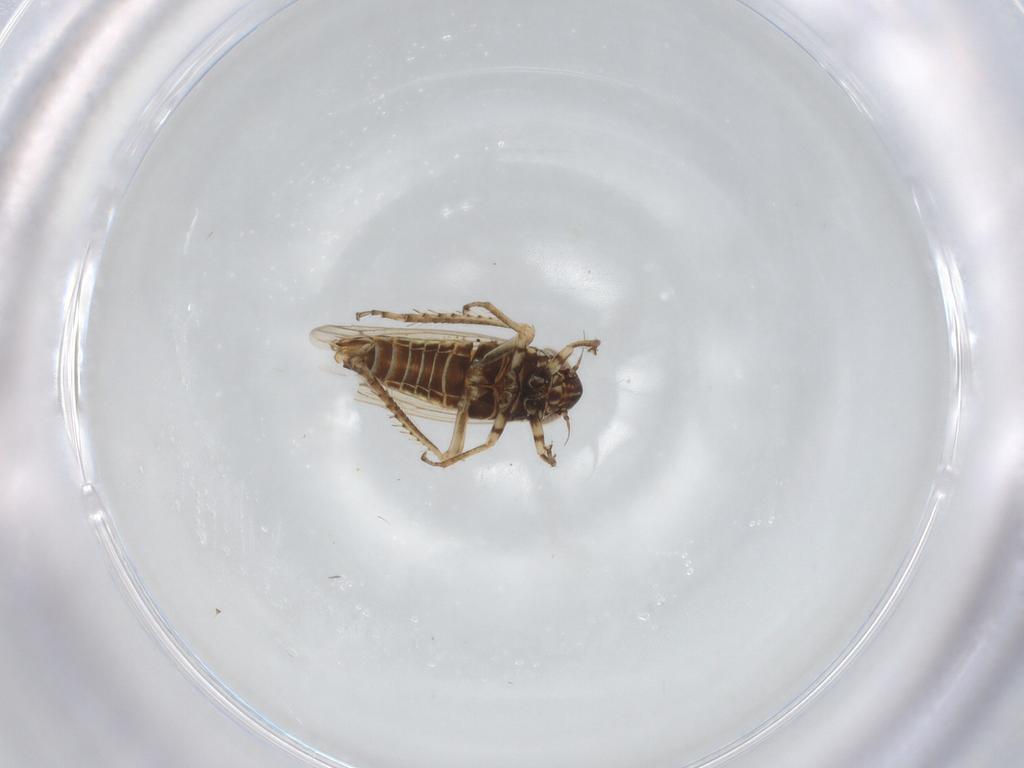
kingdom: Animalia
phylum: Arthropoda
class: Insecta
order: Hemiptera
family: Cicadellidae
